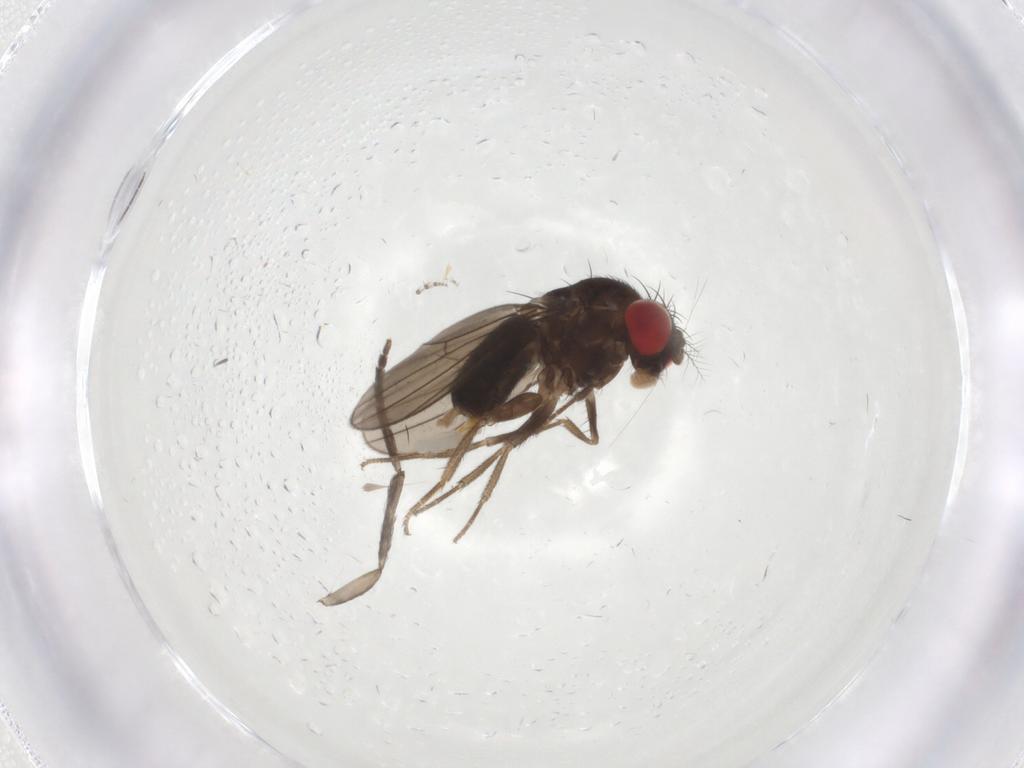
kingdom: Animalia
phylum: Arthropoda
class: Insecta
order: Diptera
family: Drosophilidae
